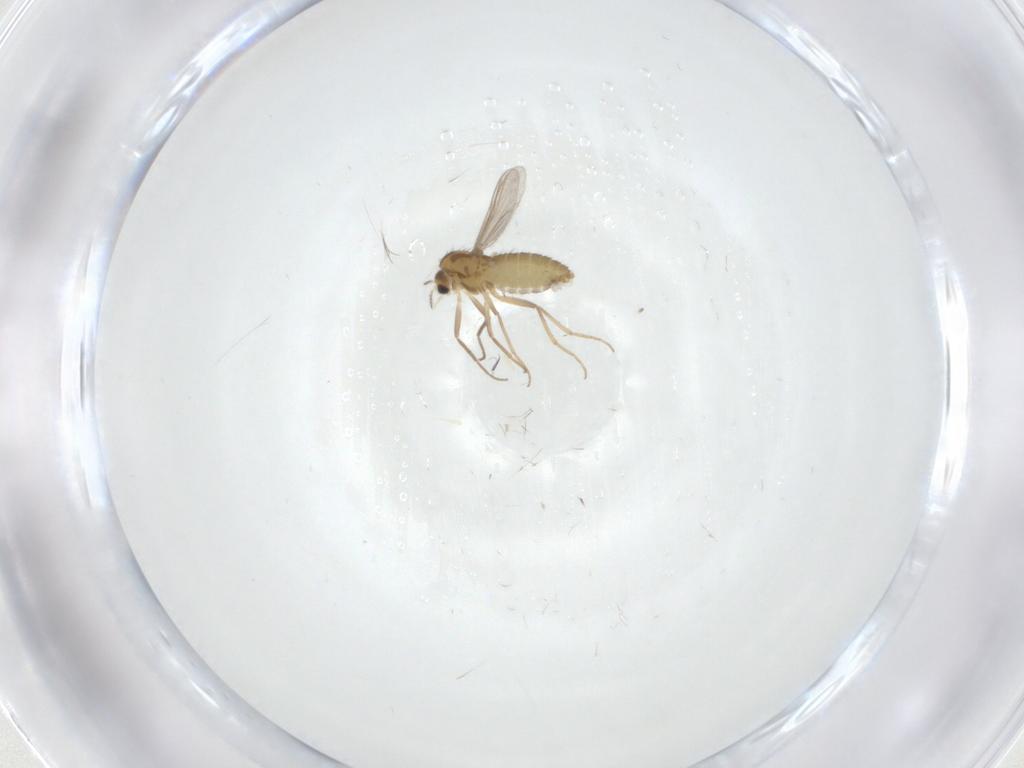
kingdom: Animalia
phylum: Arthropoda
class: Insecta
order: Diptera
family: Chironomidae
